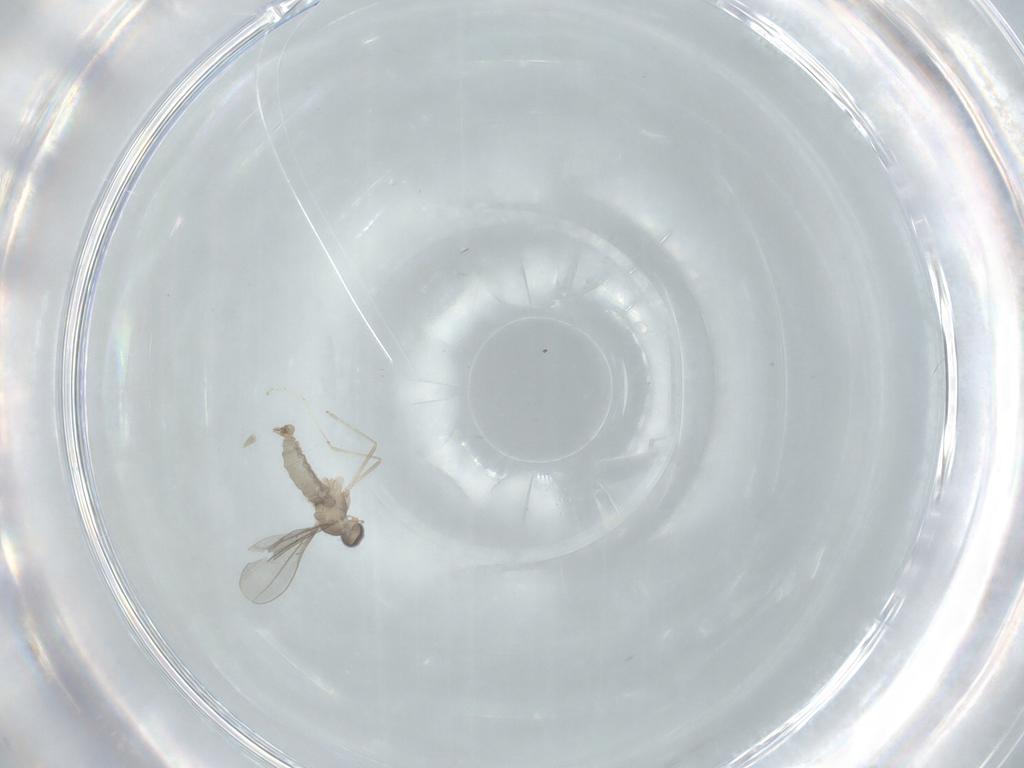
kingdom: Animalia
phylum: Arthropoda
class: Insecta
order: Diptera
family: Cecidomyiidae
